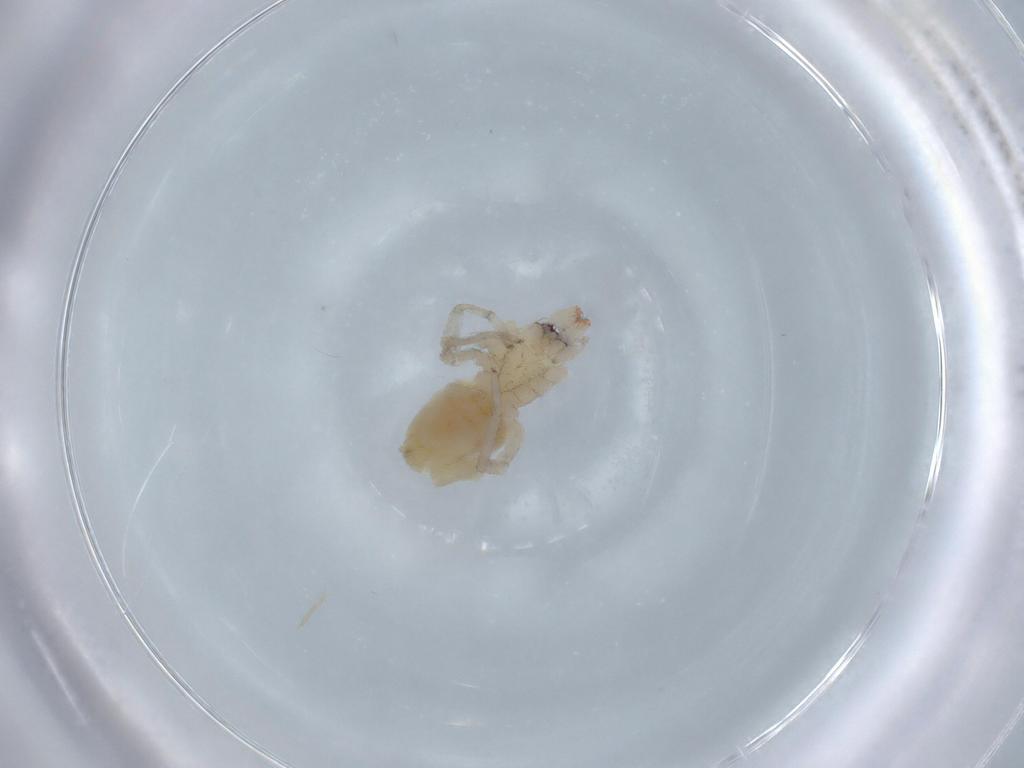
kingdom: Animalia
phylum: Arthropoda
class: Arachnida
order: Araneae
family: Corinnidae
